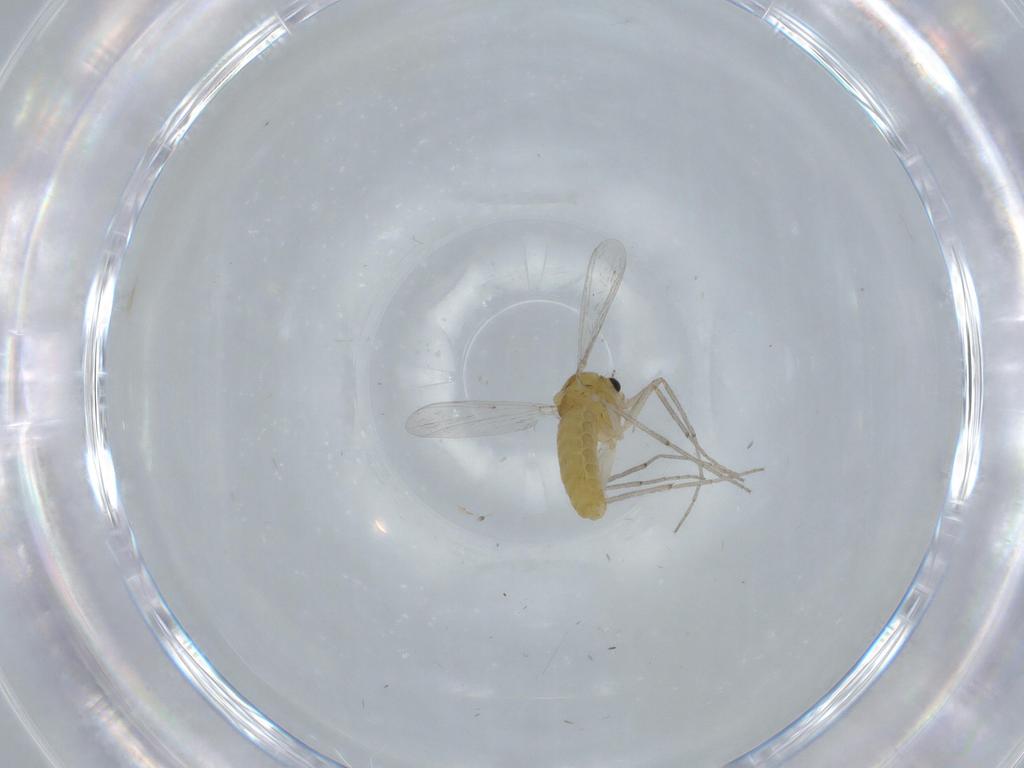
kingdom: Animalia
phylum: Arthropoda
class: Insecta
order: Diptera
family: Chironomidae
